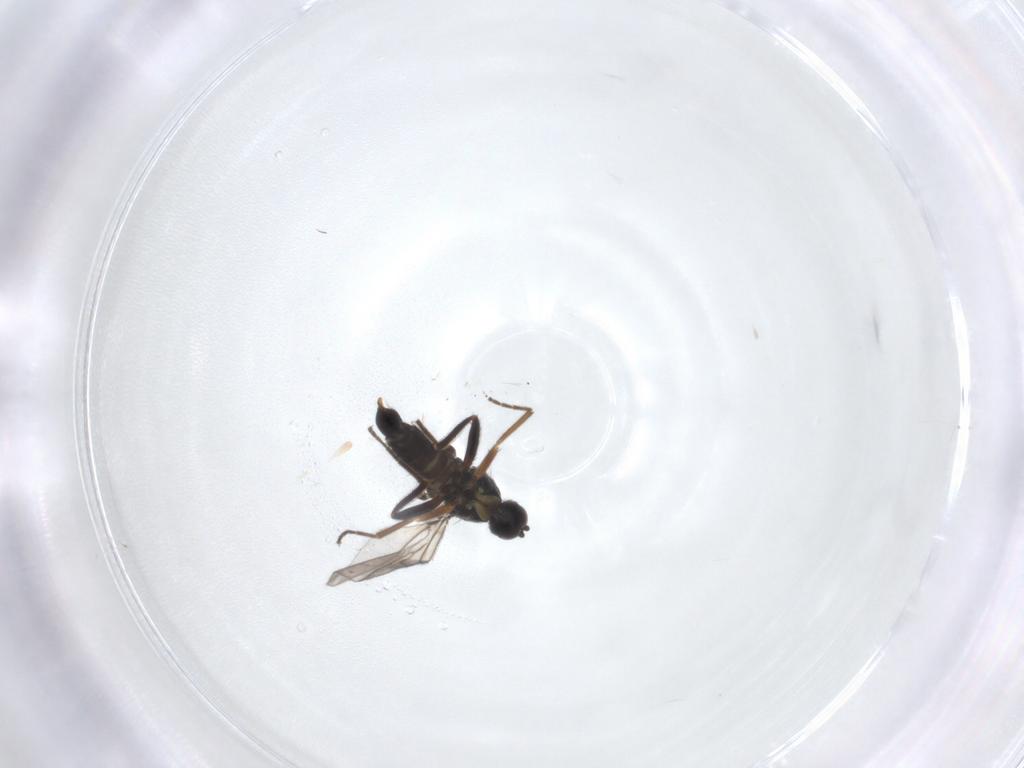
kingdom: Animalia
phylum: Arthropoda
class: Insecta
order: Diptera
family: Hybotidae
